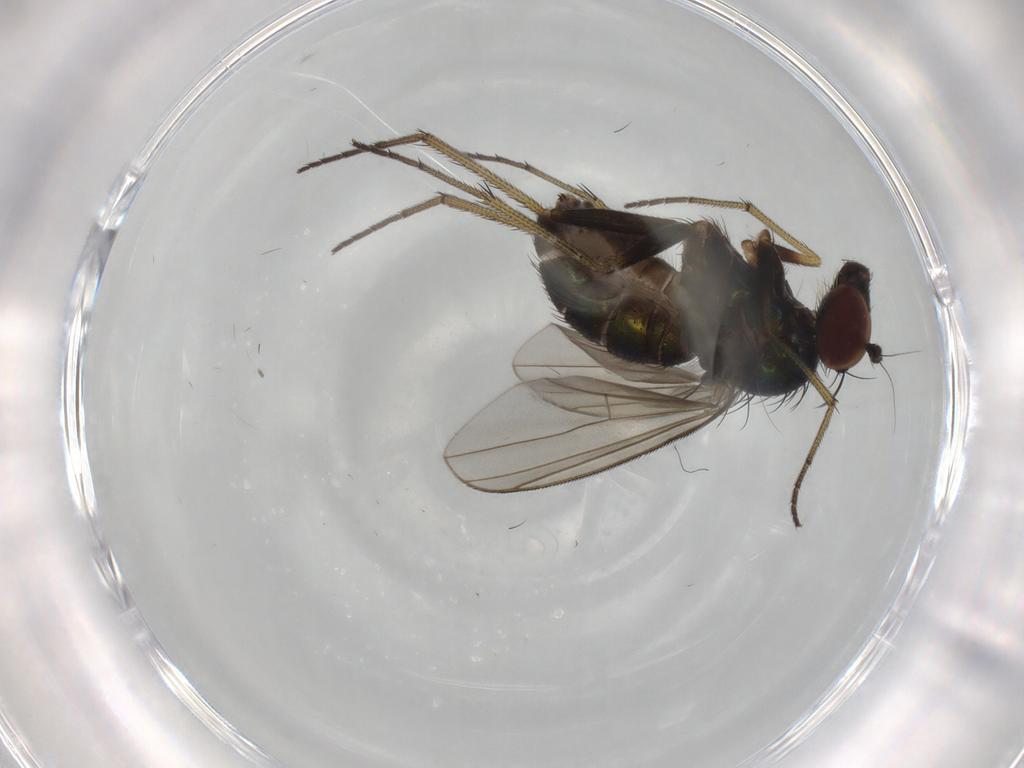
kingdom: Animalia
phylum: Arthropoda
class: Insecta
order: Diptera
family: Dolichopodidae
